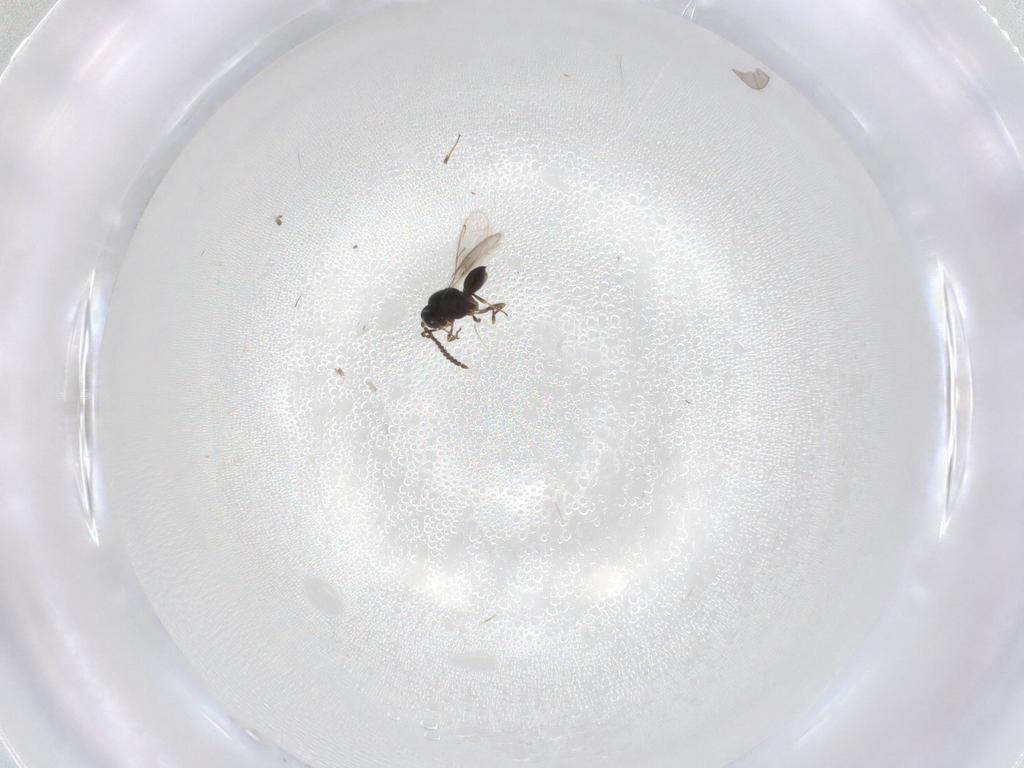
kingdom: Animalia
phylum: Arthropoda
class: Insecta
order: Hymenoptera
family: Scelionidae
